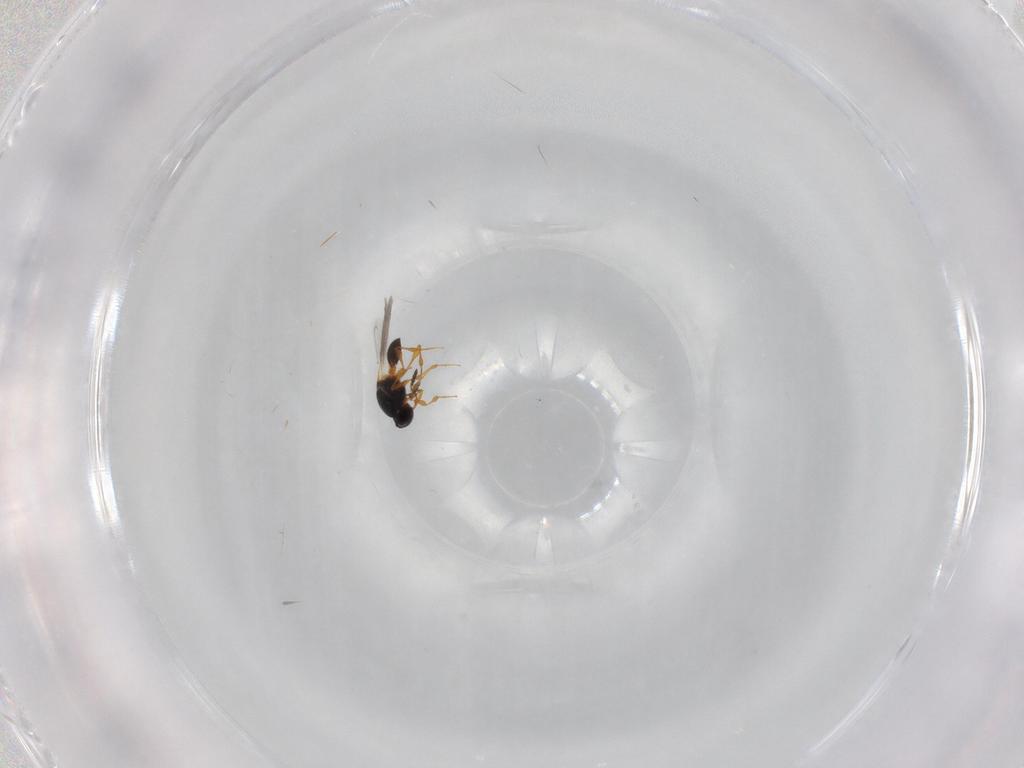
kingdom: Animalia
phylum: Arthropoda
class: Insecta
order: Hymenoptera
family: Platygastridae
